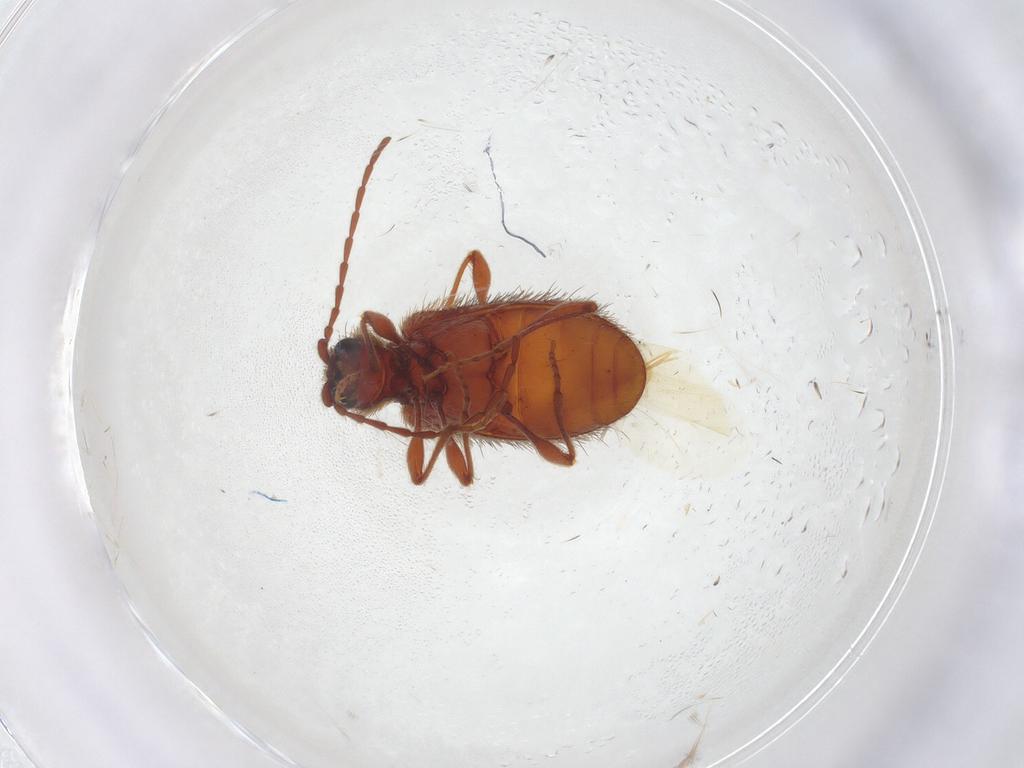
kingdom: Animalia
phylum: Arthropoda
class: Insecta
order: Coleoptera
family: Ptinidae
